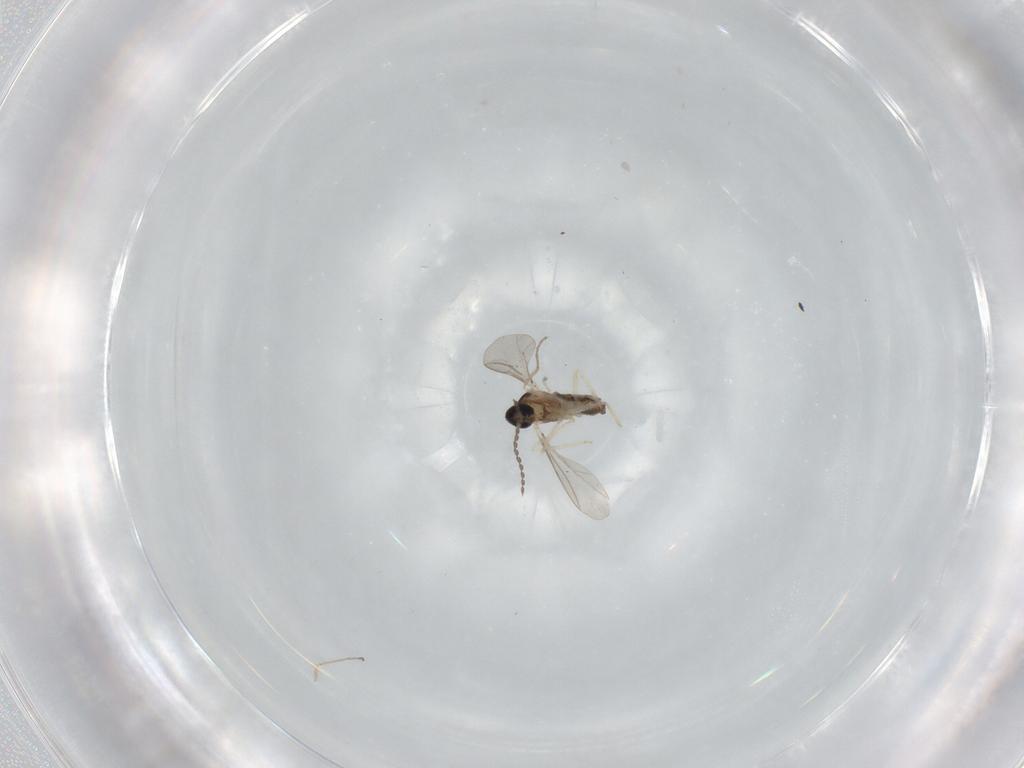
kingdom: Animalia
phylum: Arthropoda
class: Insecta
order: Diptera
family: Phoridae
